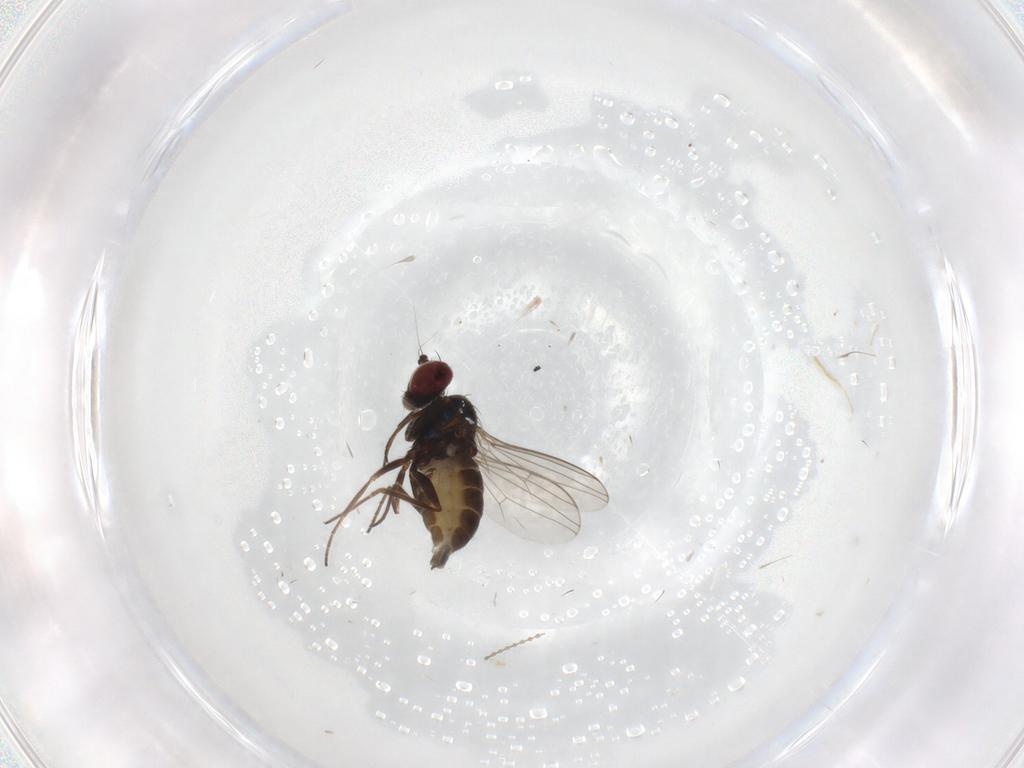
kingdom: Animalia
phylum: Arthropoda
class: Insecta
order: Diptera
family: Dolichopodidae
